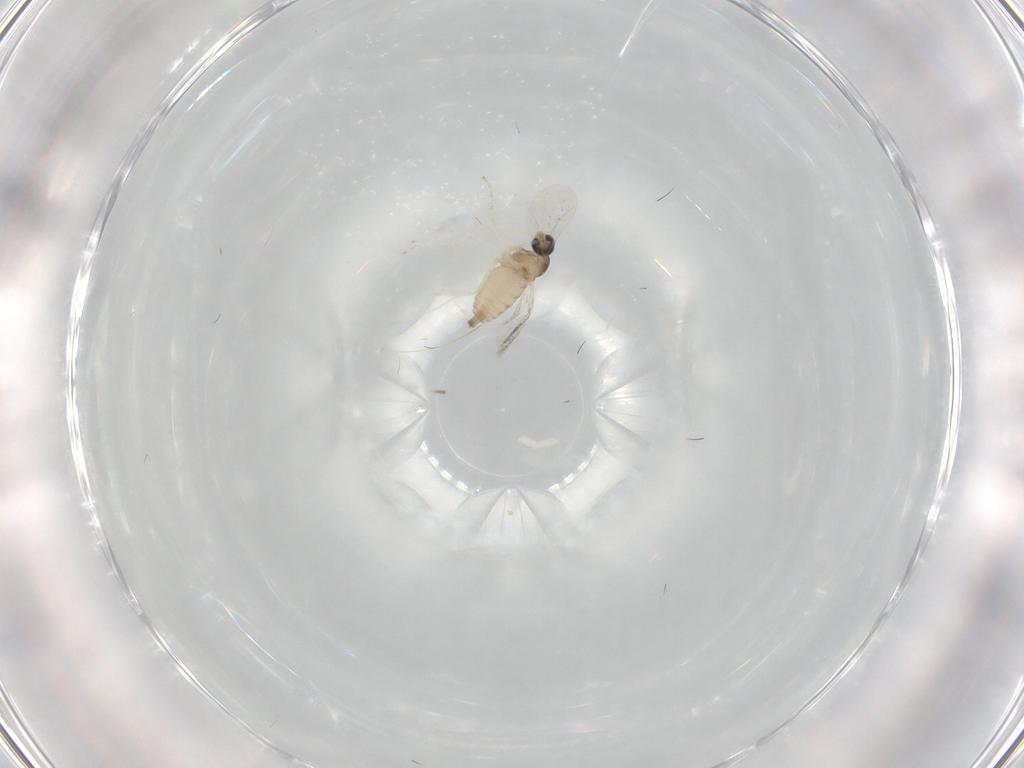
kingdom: Animalia
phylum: Arthropoda
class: Insecta
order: Diptera
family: Cecidomyiidae
